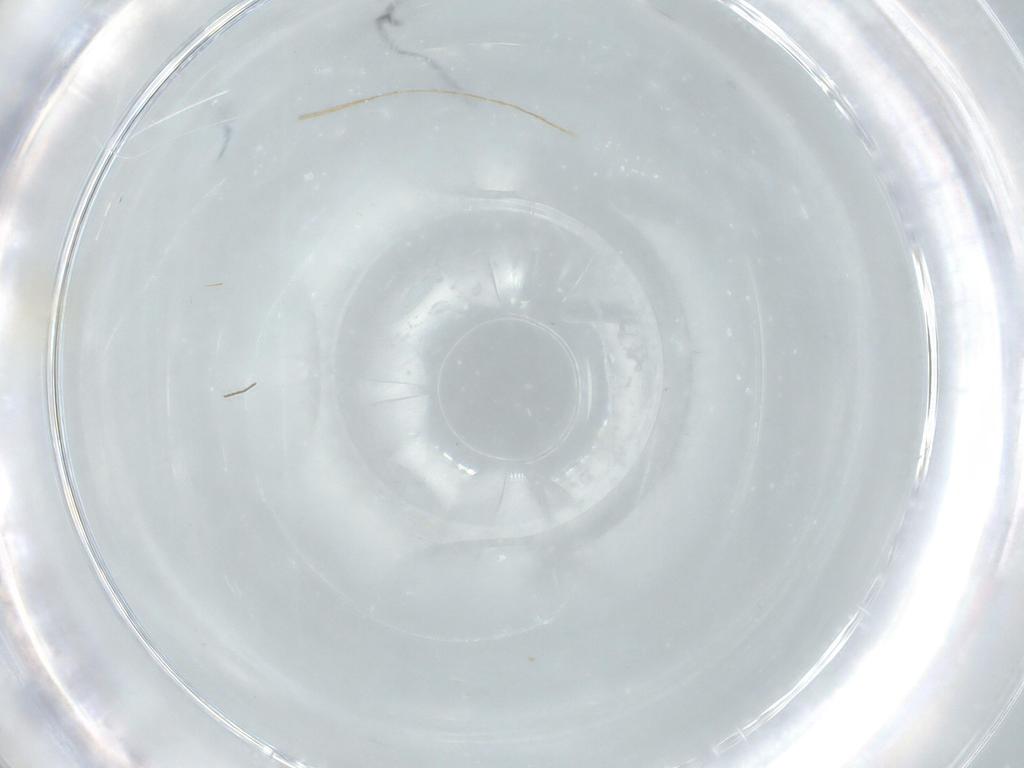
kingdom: Animalia
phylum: Arthropoda
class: Insecta
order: Diptera
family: Chironomidae
